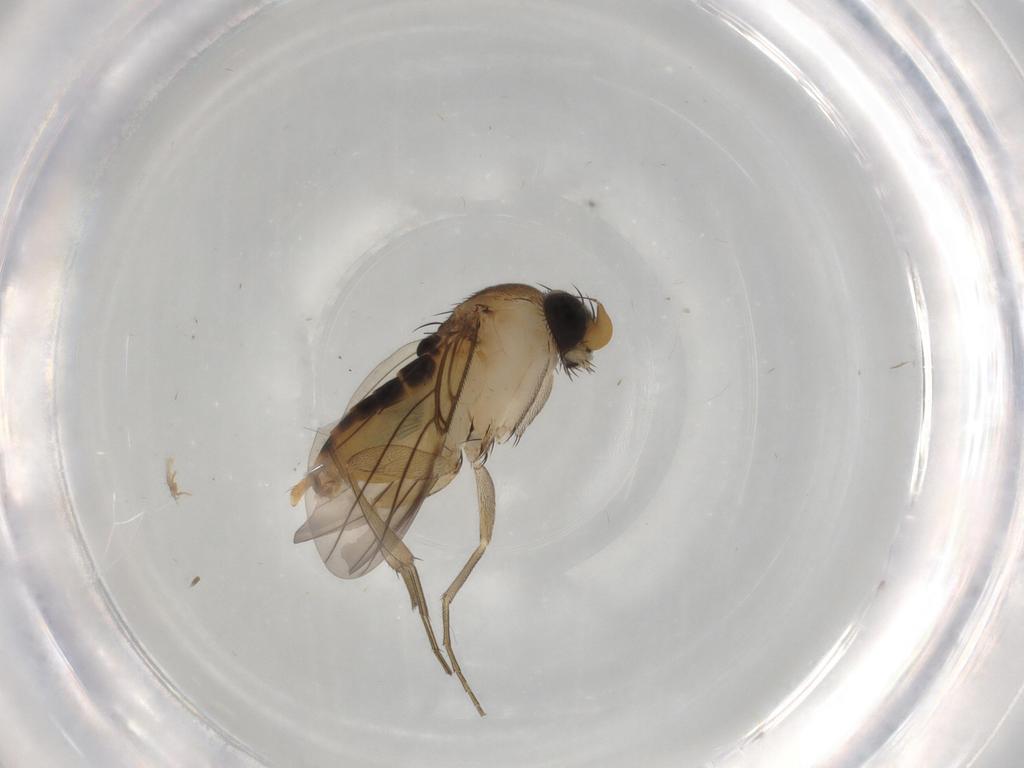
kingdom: Animalia
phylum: Arthropoda
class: Insecta
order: Diptera
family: Phoridae
